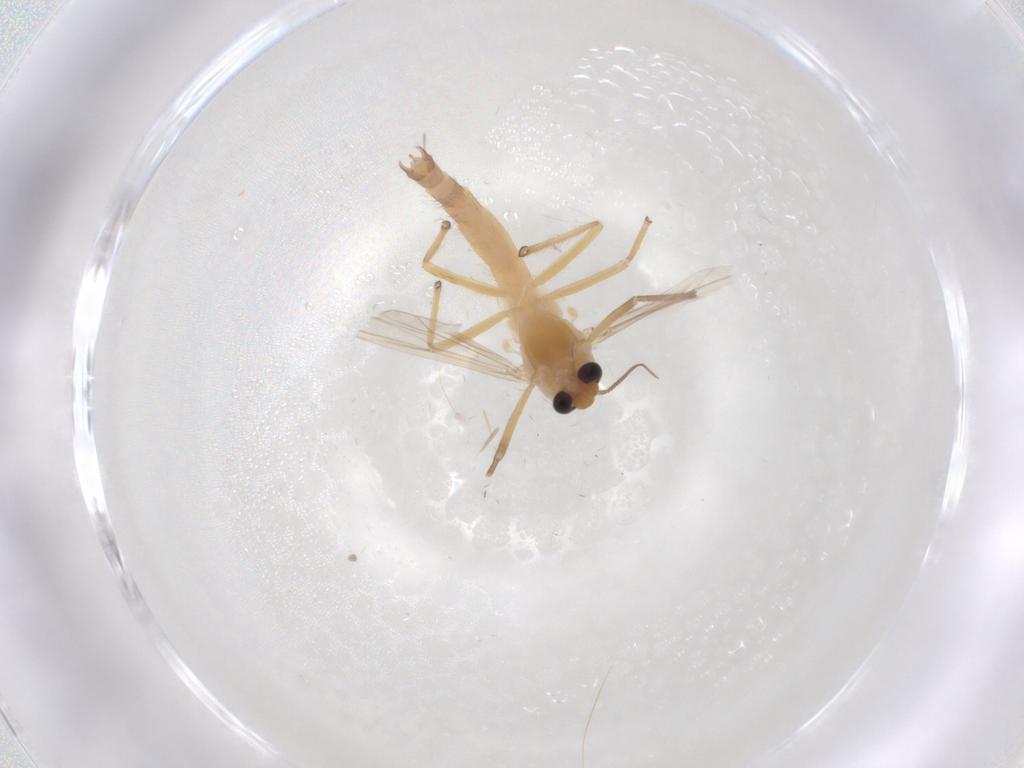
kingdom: Animalia
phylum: Arthropoda
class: Insecta
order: Diptera
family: Chironomidae
